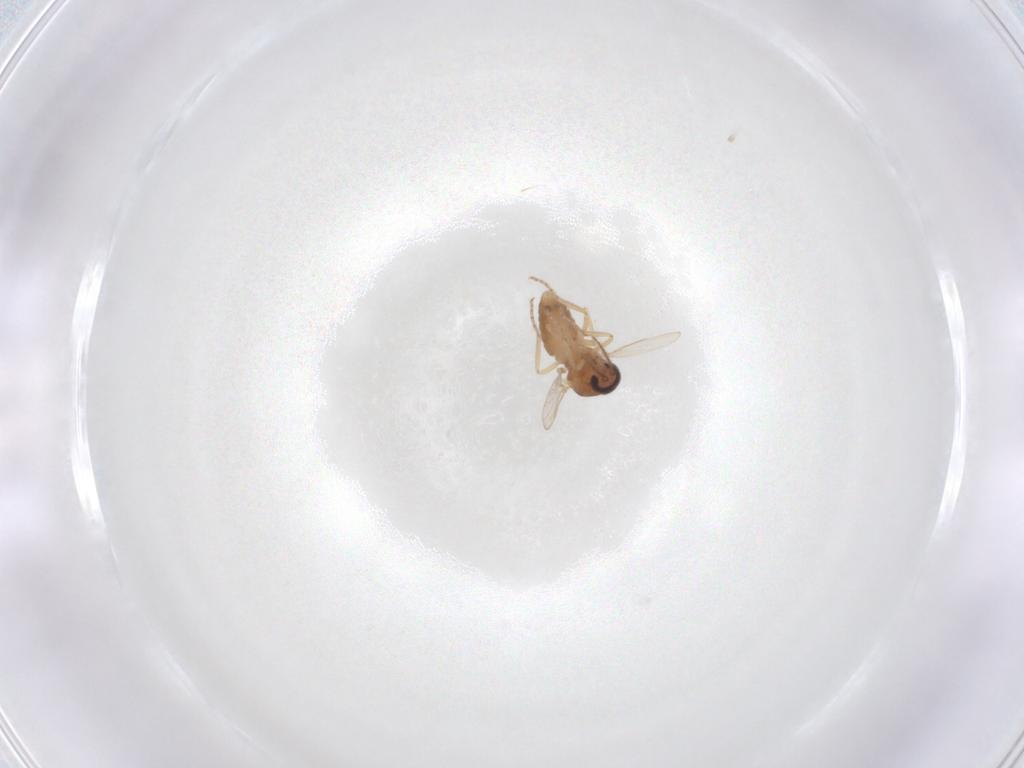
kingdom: Animalia
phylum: Arthropoda
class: Insecta
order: Diptera
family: Ceratopogonidae
